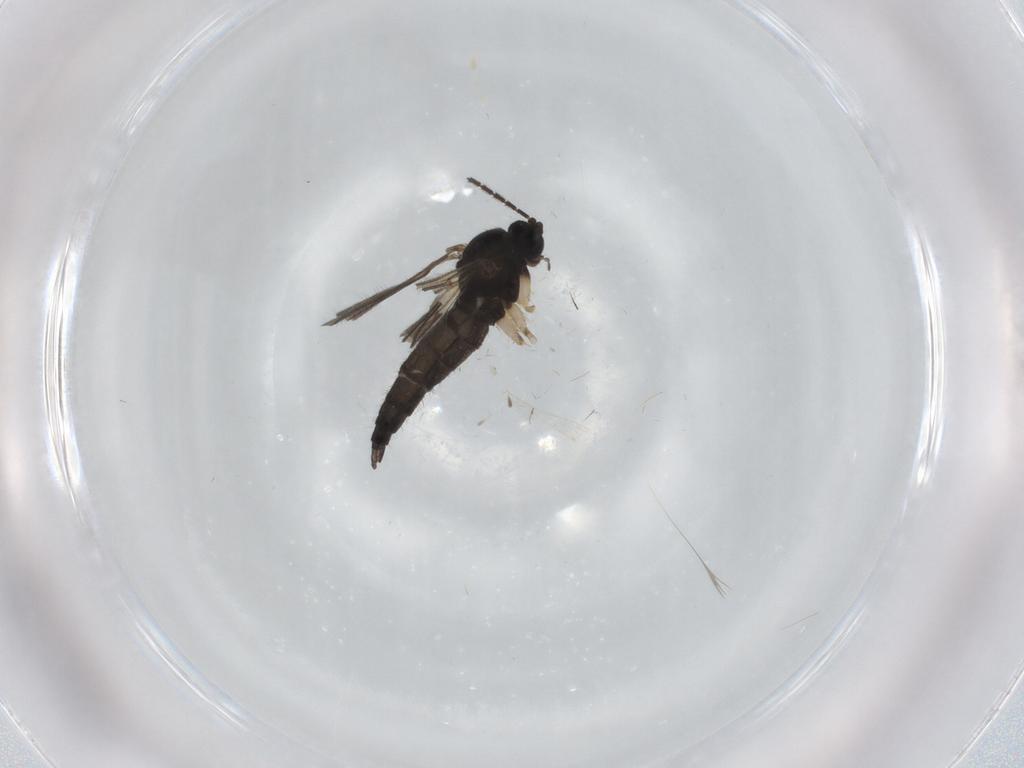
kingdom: Animalia
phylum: Arthropoda
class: Insecta
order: Diptera
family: Sciaridae
